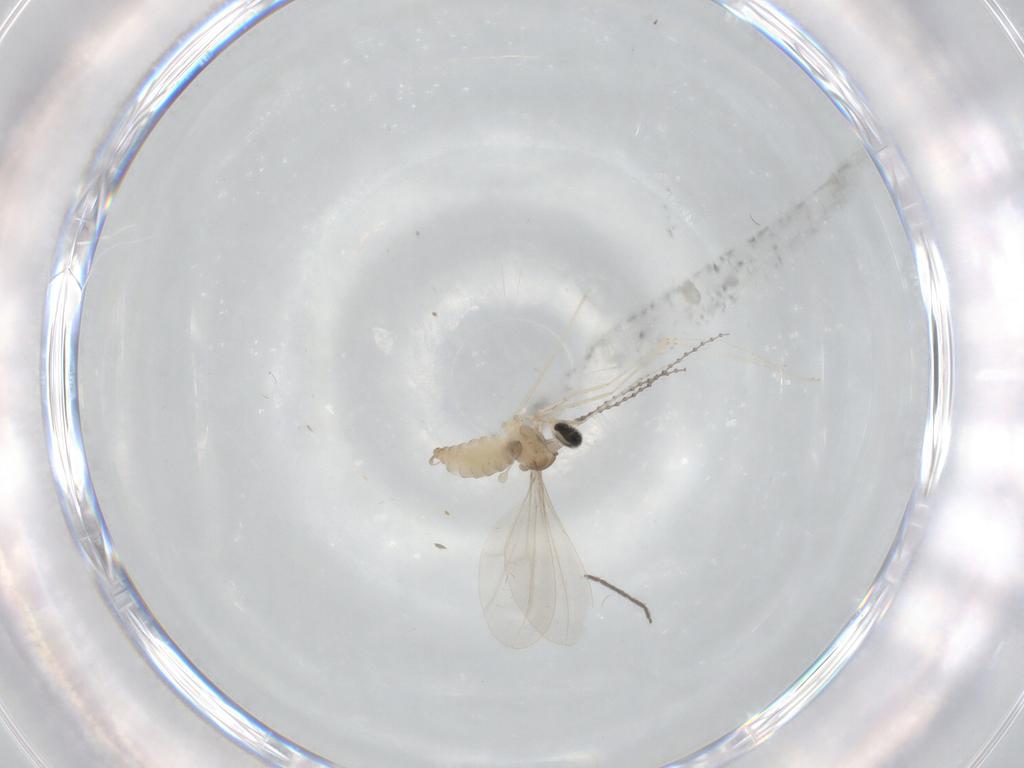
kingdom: Animalia
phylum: Arthropoda
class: Insecta
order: Diptera
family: Cecidomyiidae
